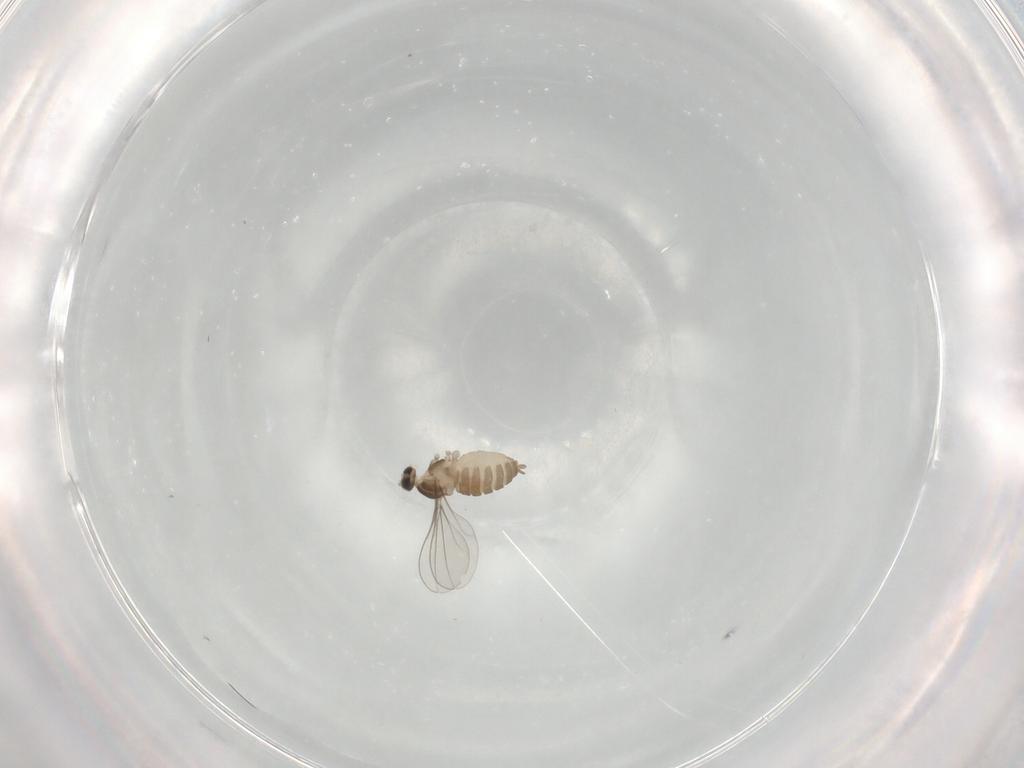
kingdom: Animalia
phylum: Arthropoda
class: Insecta
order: Diptera
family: Cecidomyiidae
